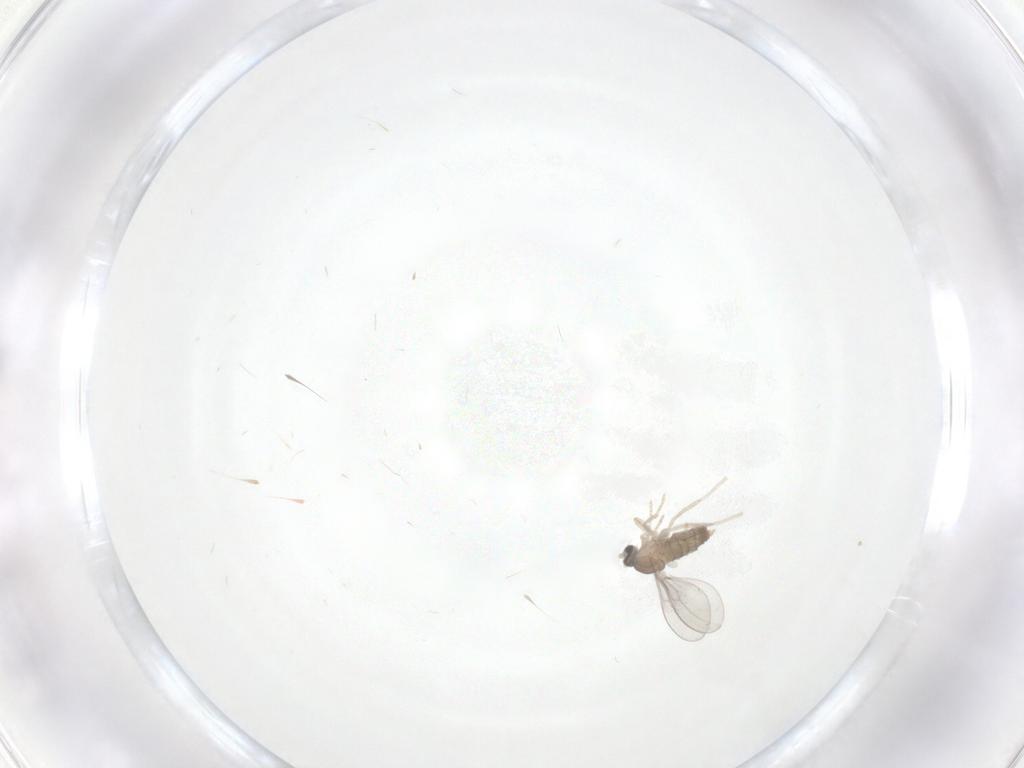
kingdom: Animalia
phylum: Arthropoda
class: Insecta
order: Diptera
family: Cecidomyiidae
